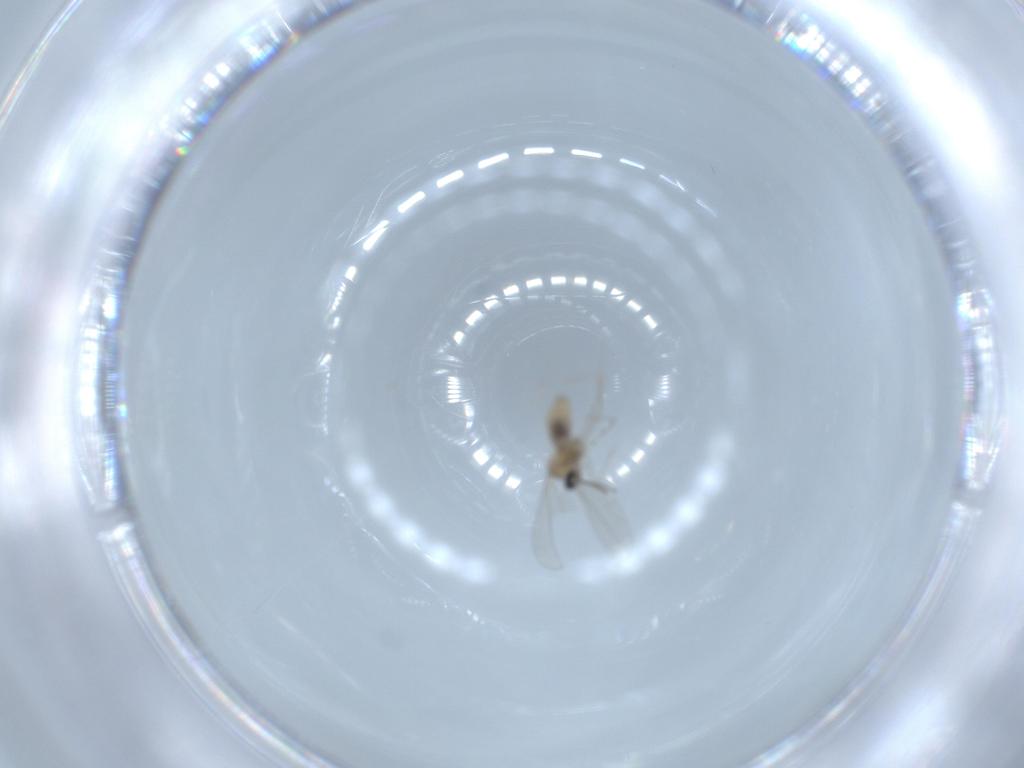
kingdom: Animalia
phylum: Arthropoda
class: Insecta
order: Diptera
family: Cecidomyiidae
